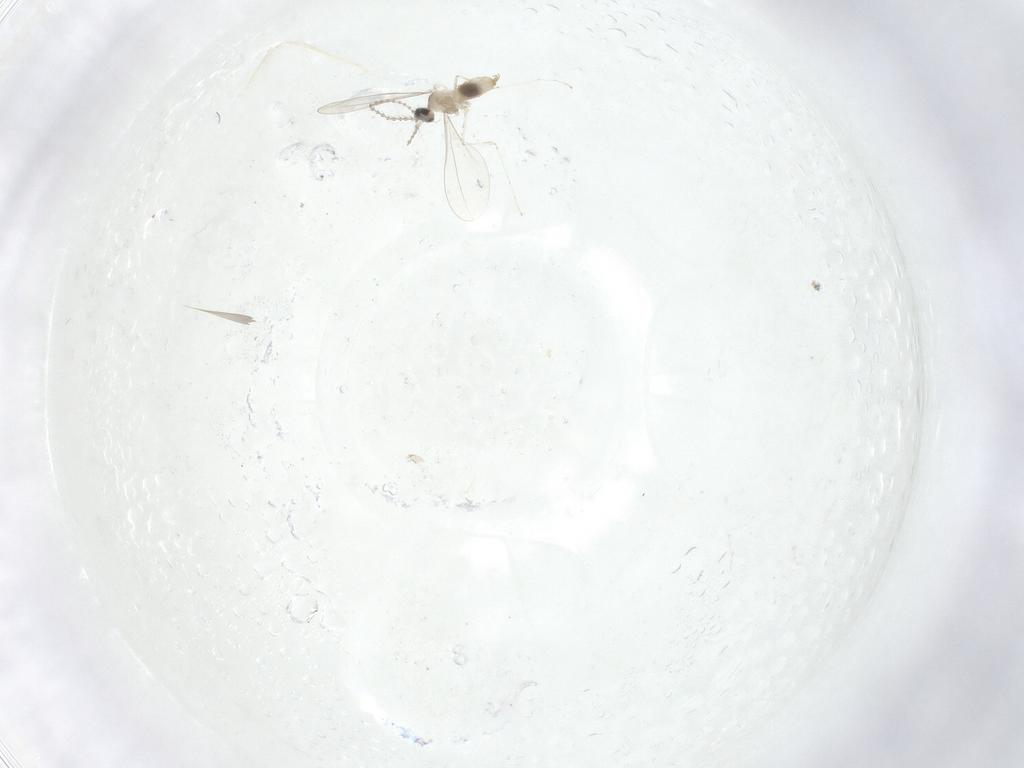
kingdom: Animalia
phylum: Arthropoda
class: Insecta
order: Diptera
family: Cecidomyiidae
